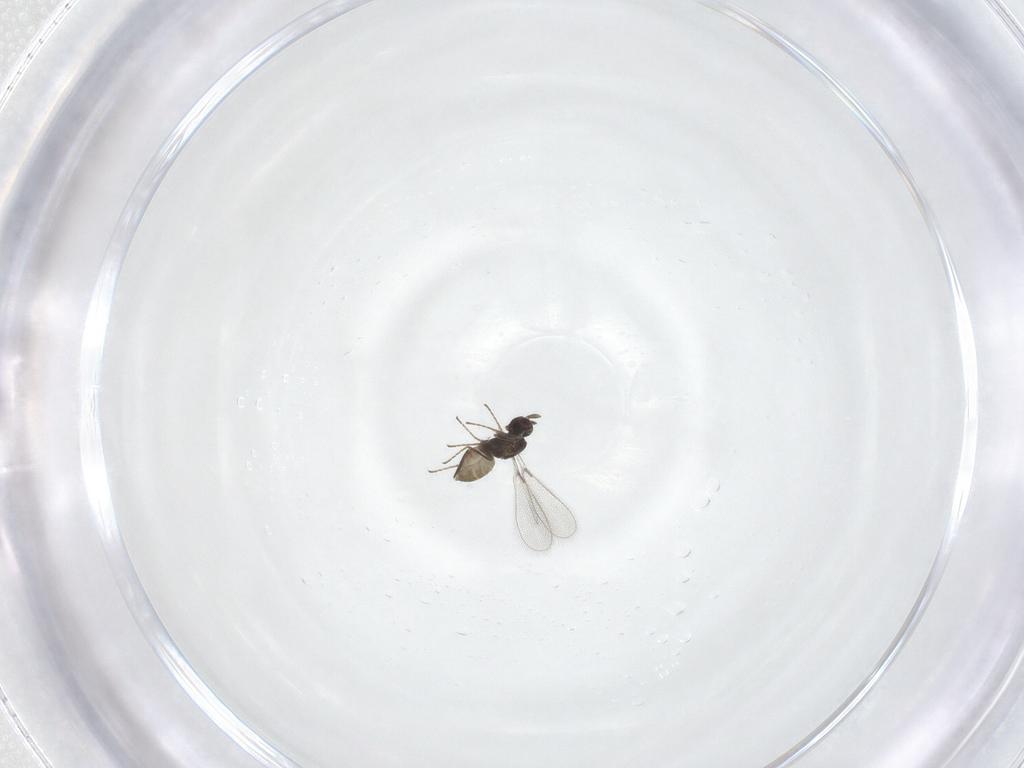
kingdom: Animalia
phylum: Arthropoda
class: Insecta
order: Hymenoptera
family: Mymaridae
